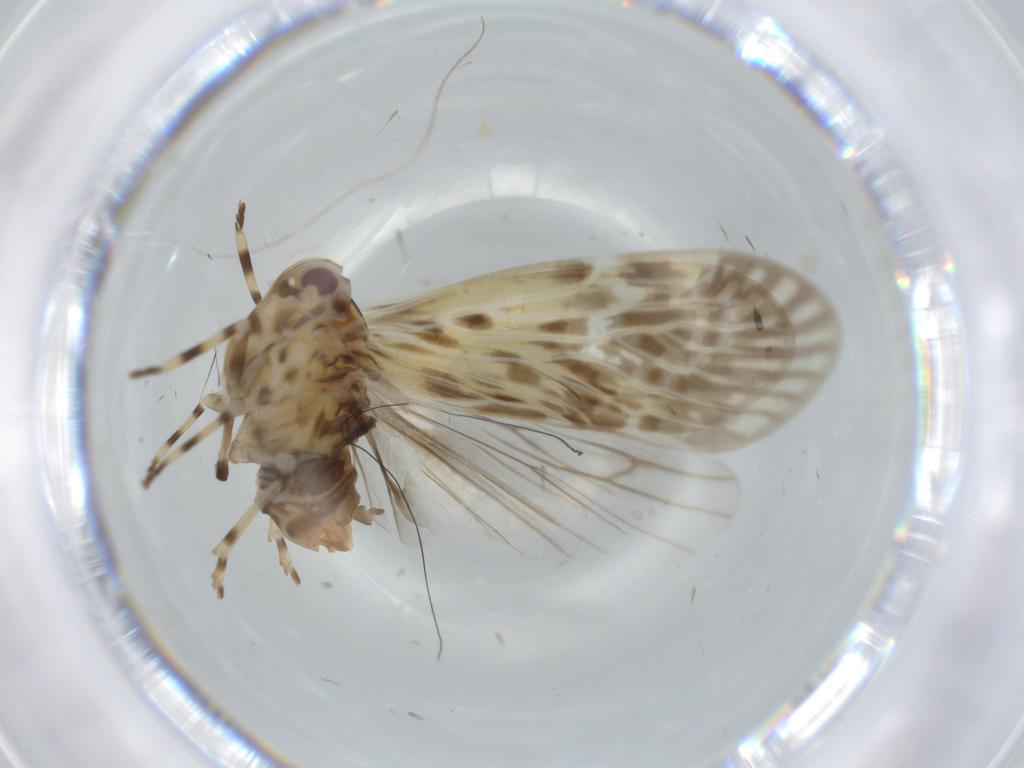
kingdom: Animalia
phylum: Arthropoda
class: Insecta
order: Hemiptera
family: Derbidae
